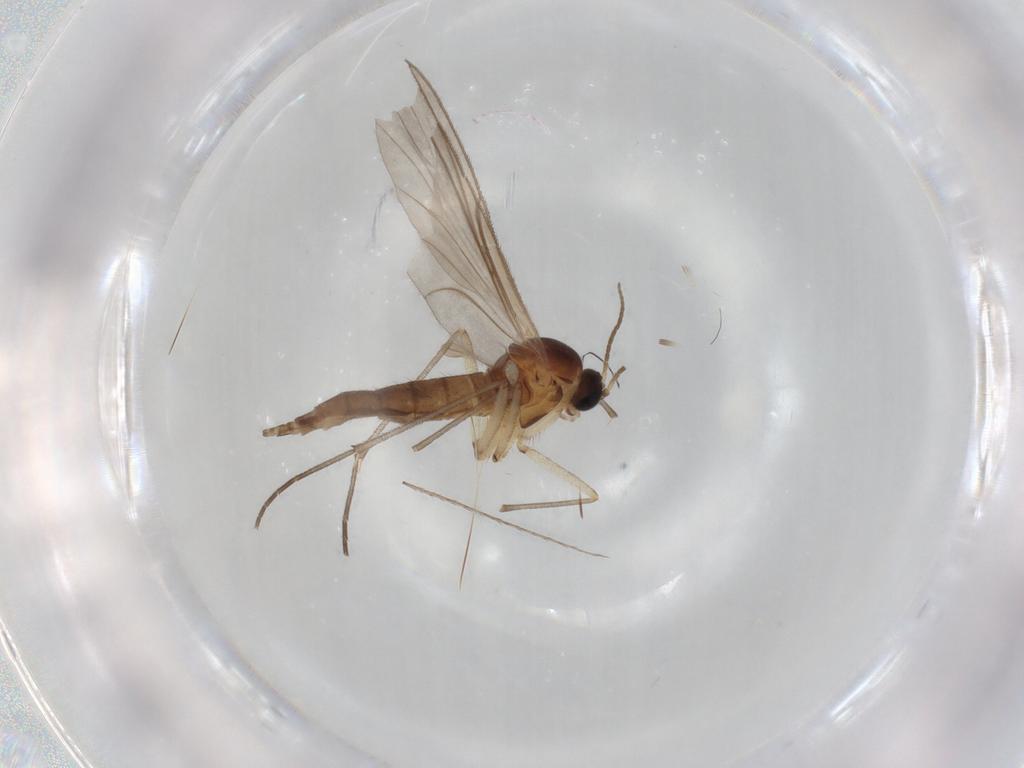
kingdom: Animalia
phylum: Arthropoda
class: Insecta
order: Diptera
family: Sciaridae
